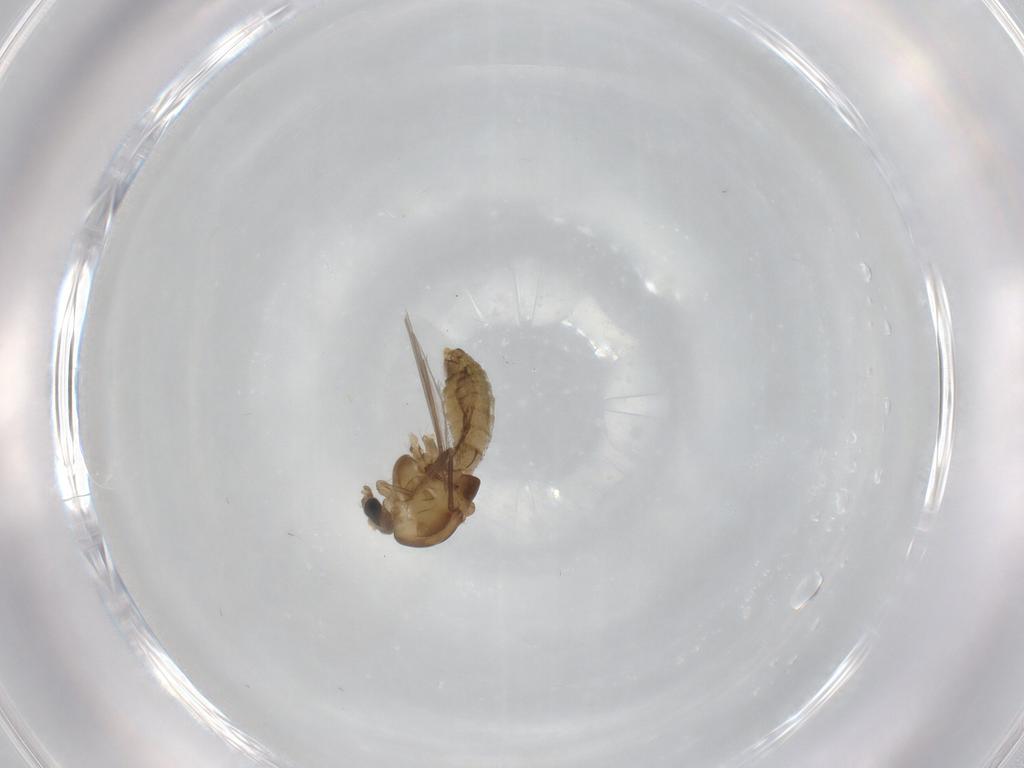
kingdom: Animalia
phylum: Arthropoda
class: Insecta
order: Diptera
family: Chironomidae
